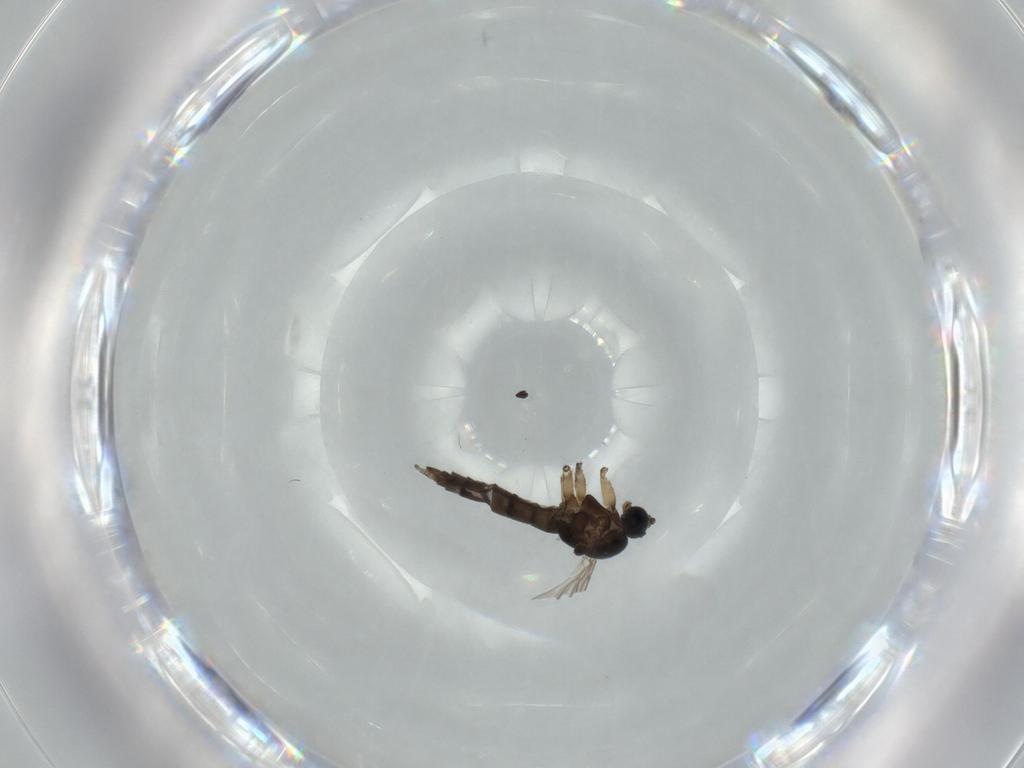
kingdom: Animalia
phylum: Arthropoda
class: Insecta
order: Diptera
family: Sciaridae
